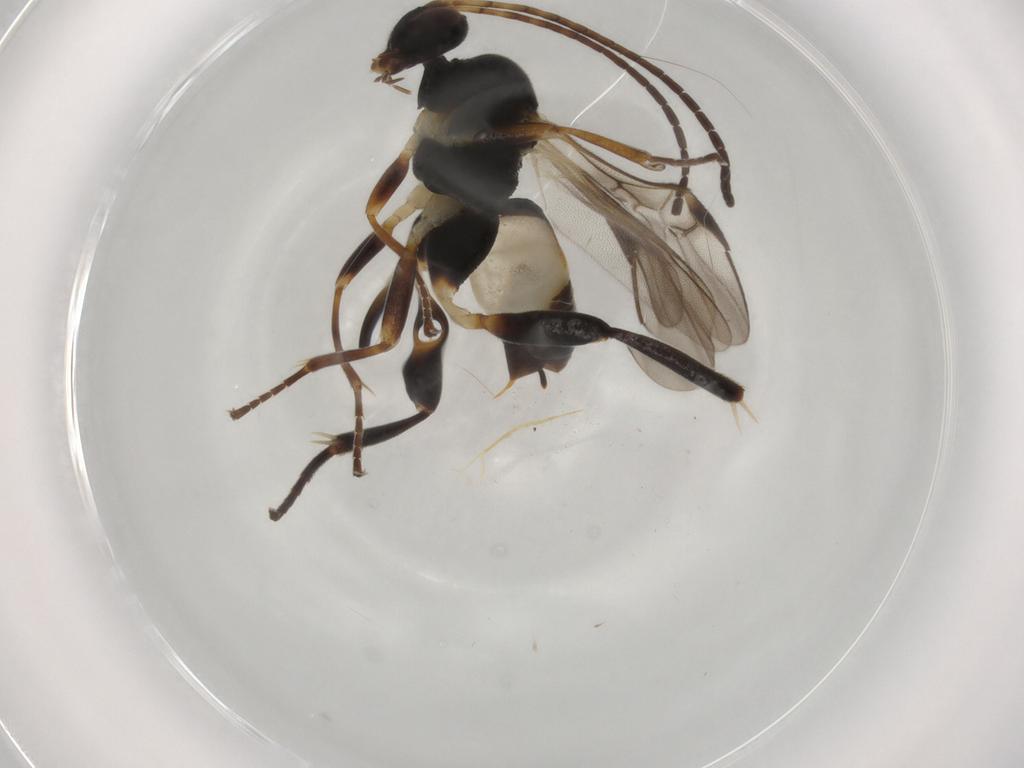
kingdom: Animalia
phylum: Arthropoda
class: Insecta
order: Hymenoptera
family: Braconidae
